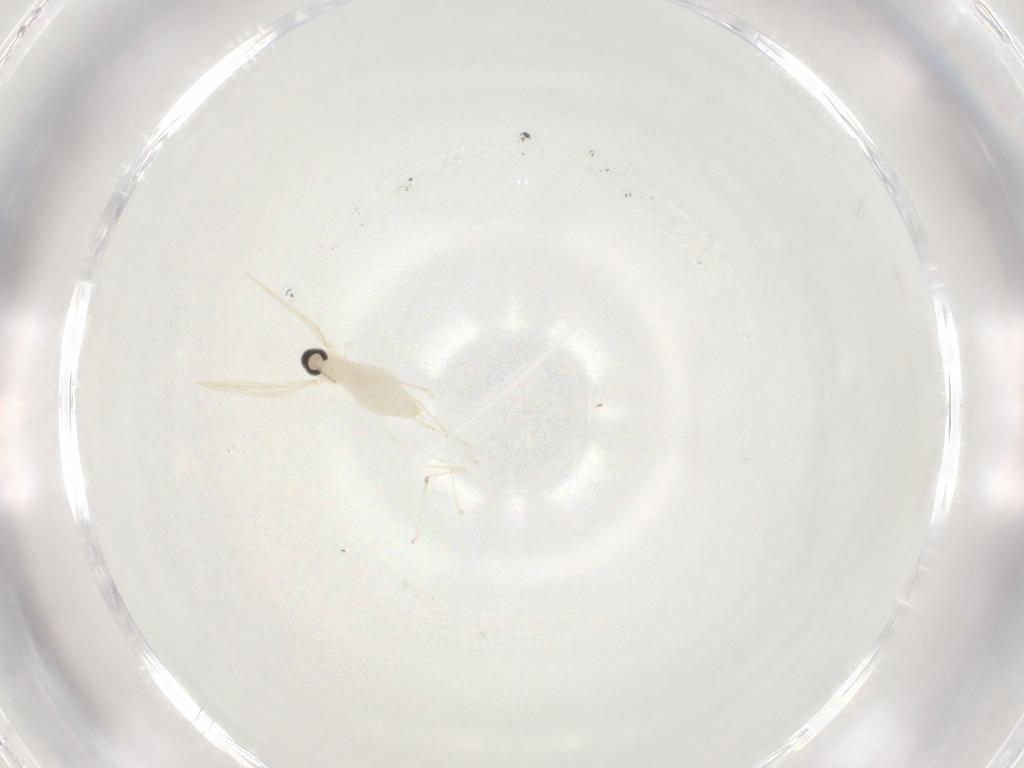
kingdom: Animalia
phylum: Arthropoda
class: Insecta
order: Diptera
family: Cecidomyiidae
